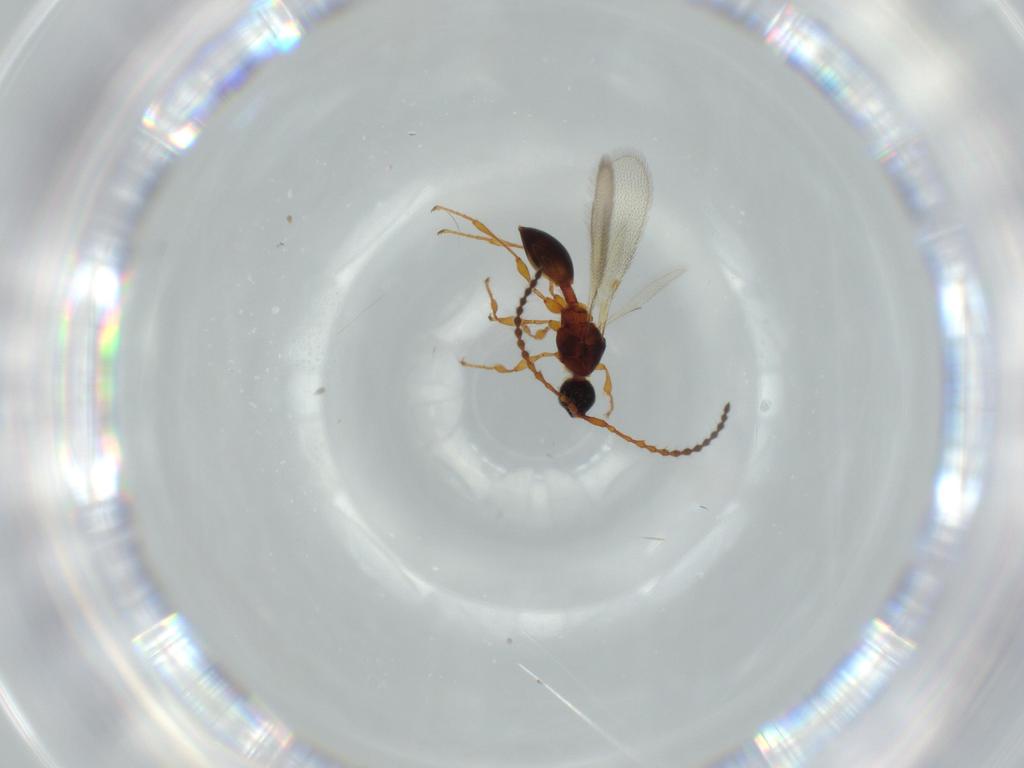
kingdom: Animalia
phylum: Arthropoda
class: Insecta
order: Hymenoptera
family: Diapriidae
